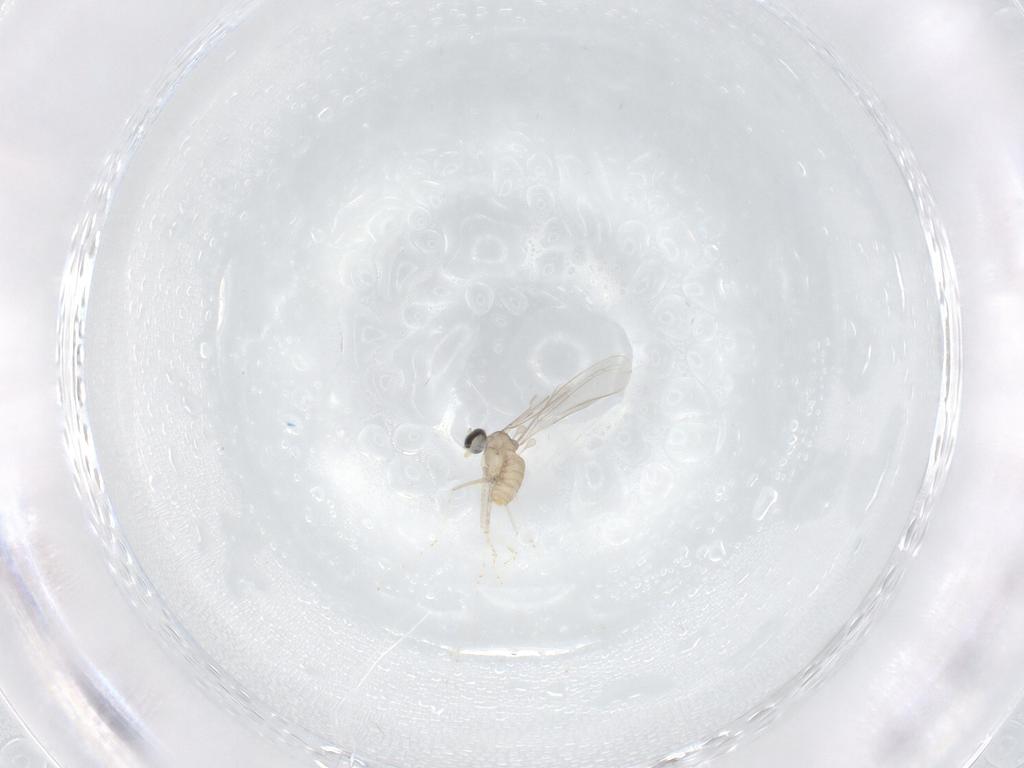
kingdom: Animalia
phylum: Arthropoda
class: Insecta
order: Diptera
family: Cecidomyiidae
